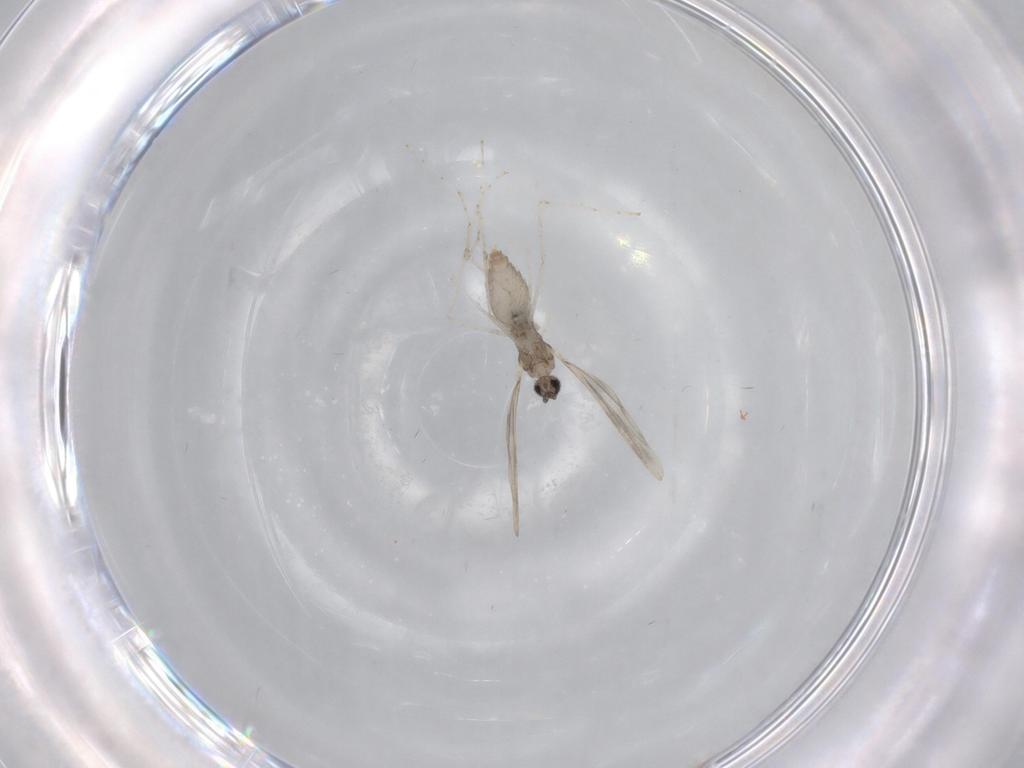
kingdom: Animalia
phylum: Arthropoda
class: Insecta
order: Diptera
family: Cecidomyiidae
